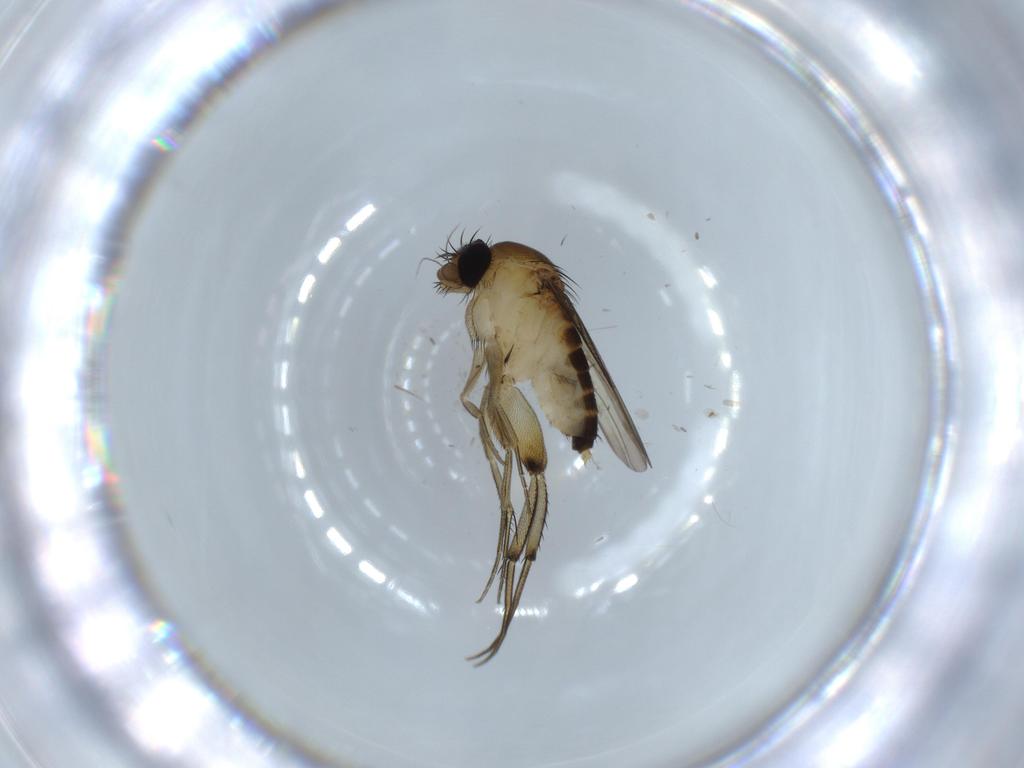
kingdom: Animalia
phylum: Arthropoda
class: Insecta
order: Diptera
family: Phoridae
